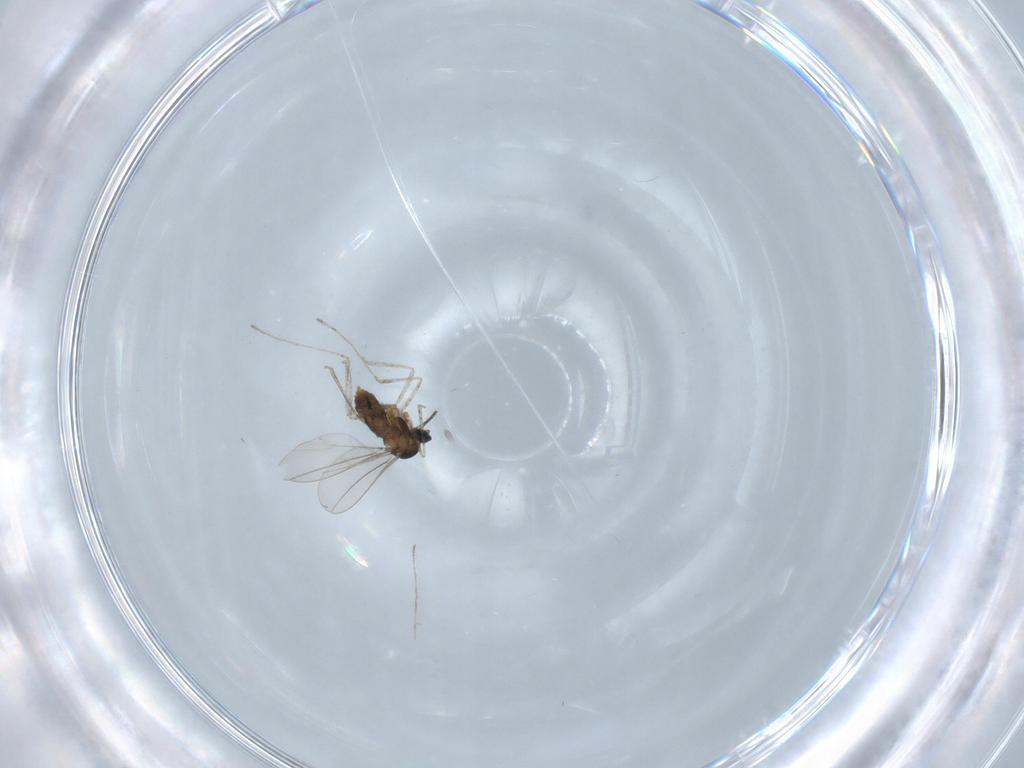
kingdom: Animalia
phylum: Arthropoda
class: Insecta
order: Diptera
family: Cecidomyiidae
